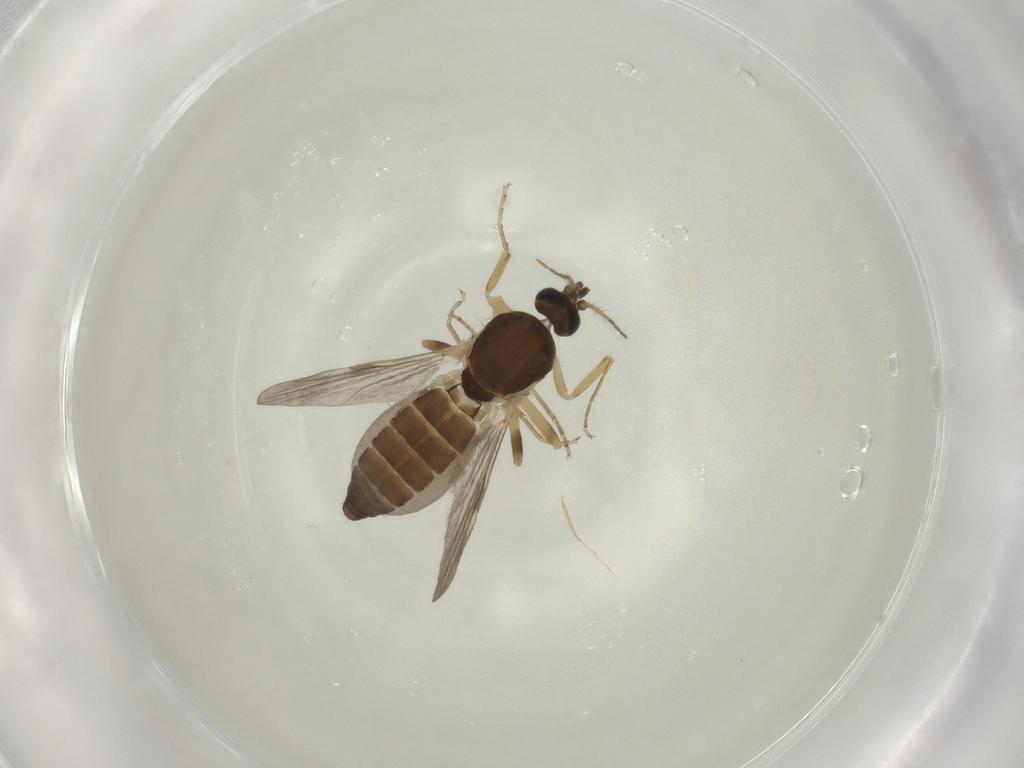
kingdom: Animalia
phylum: Arthropoda
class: Insecta
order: Diptera
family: Ceratopogonidae
